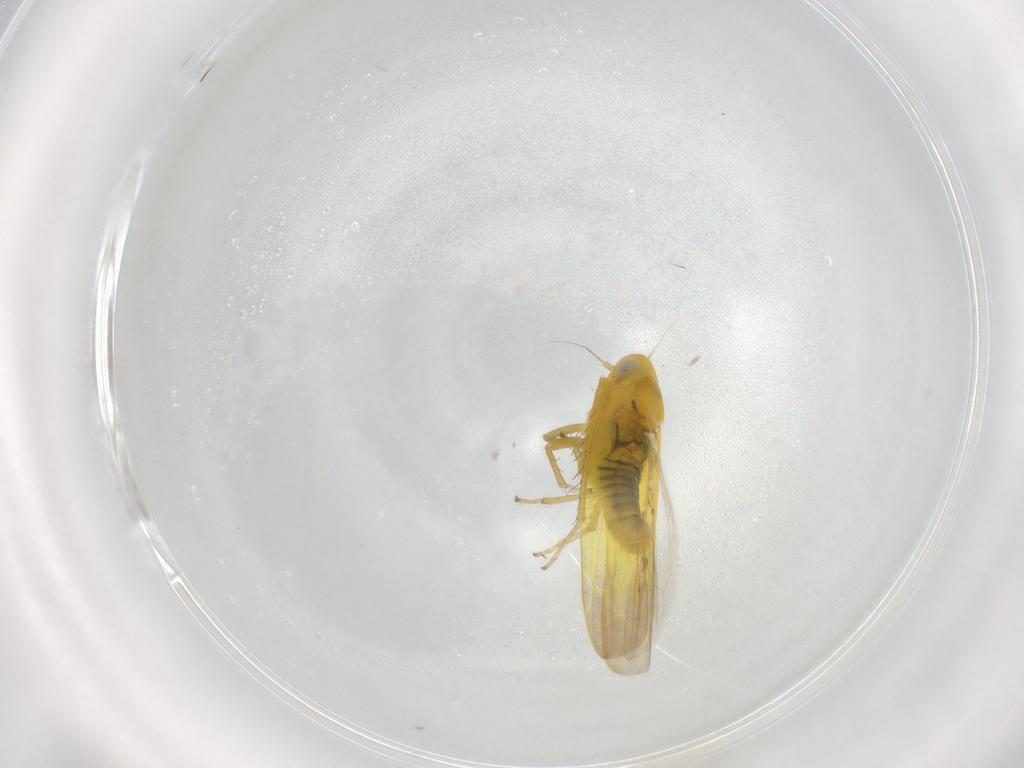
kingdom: Animalia
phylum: Arthropoda
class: Insecta
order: Hemiptera
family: Cicadellidae
